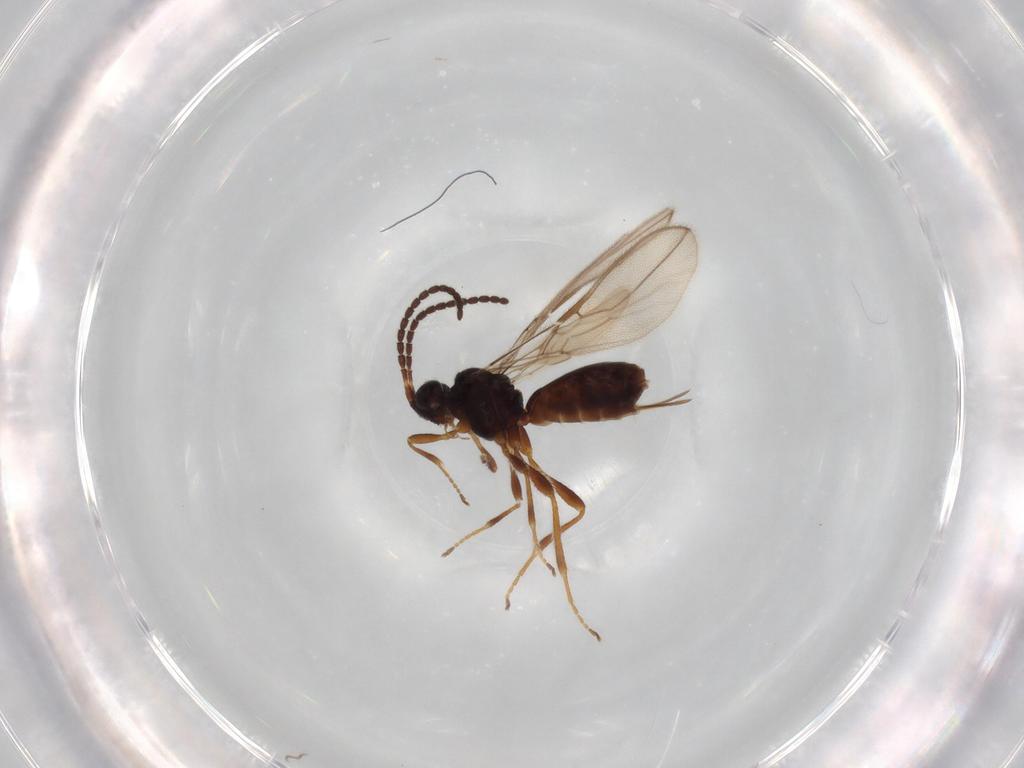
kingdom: Animalia
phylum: Arthropoda
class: Insecta
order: Hymenoptera
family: Braconidae
